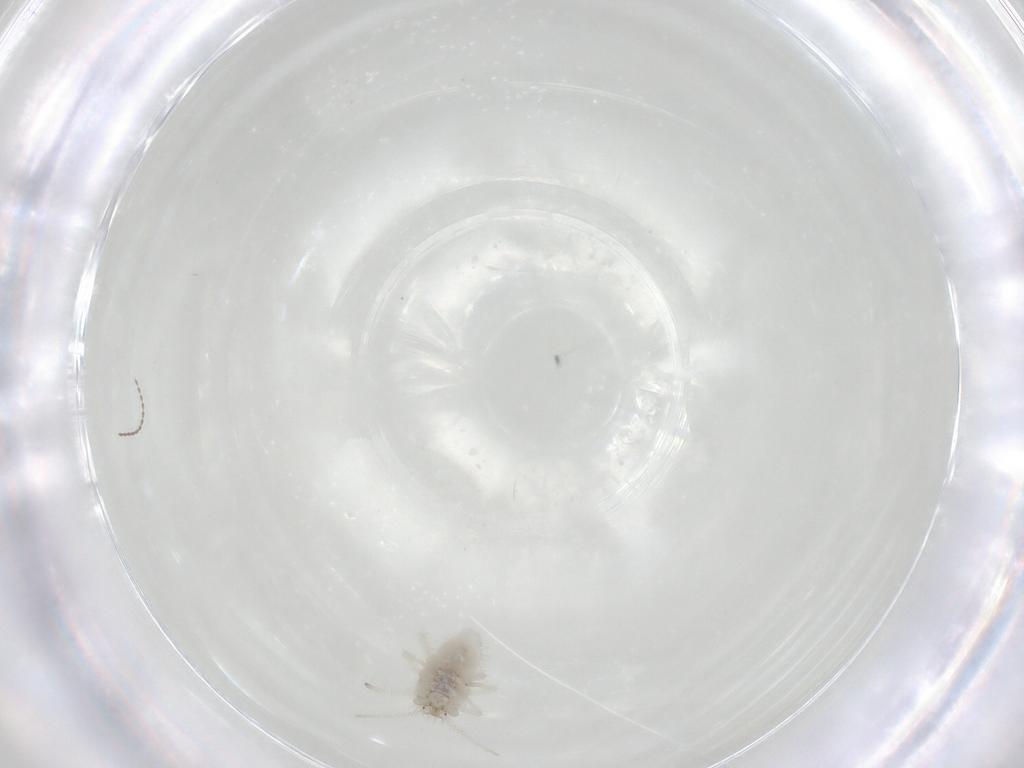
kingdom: Animalia
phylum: Arthropoda
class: Insecta
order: Neuroptera
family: Coniopterygidae
